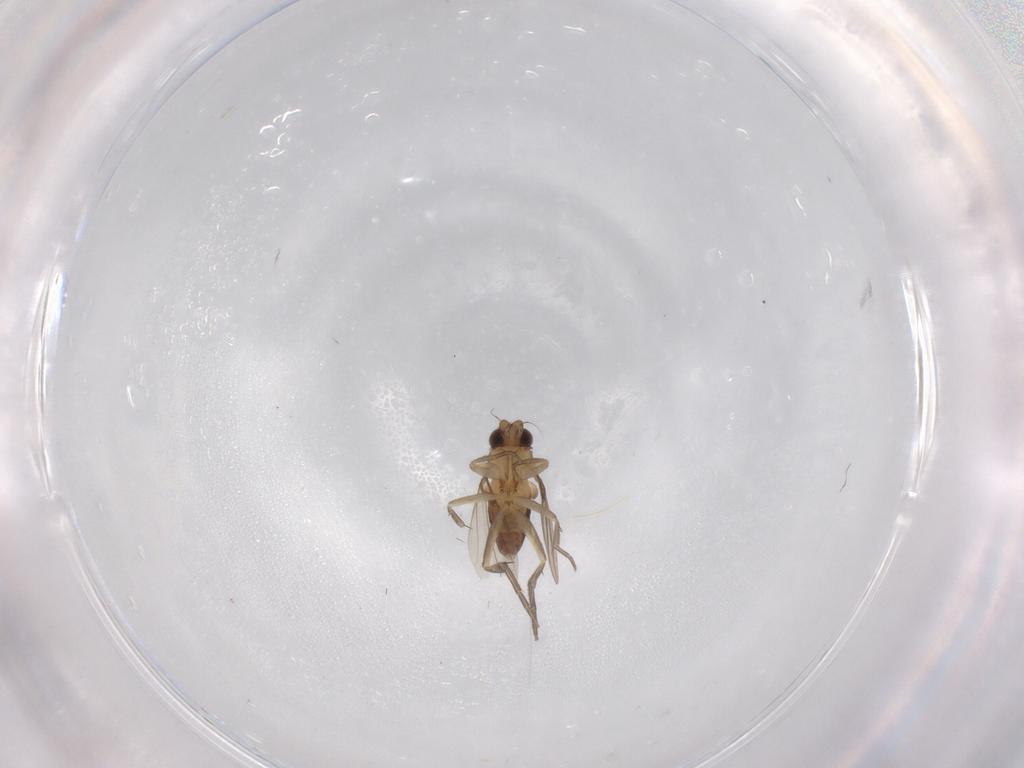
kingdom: Animalia
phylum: Arthropoda
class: Insecta
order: Diptera
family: Phoridae
